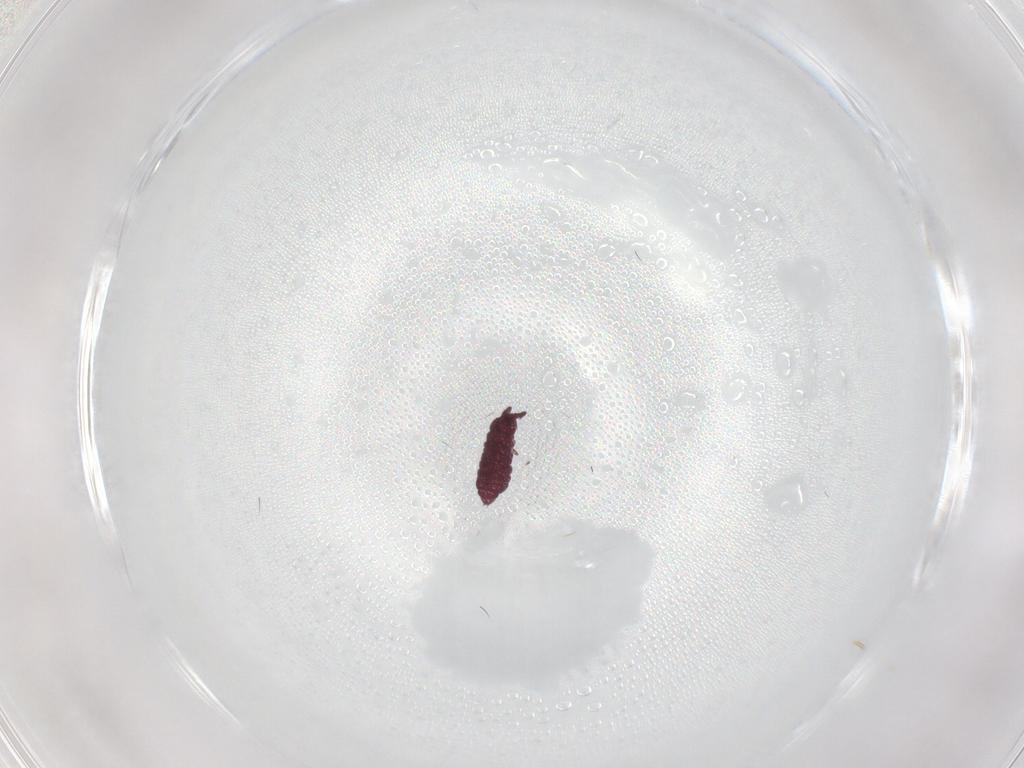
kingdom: Animalia
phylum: Arthropoda
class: Collembola
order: Poduromorpha
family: Hypogastruridae
